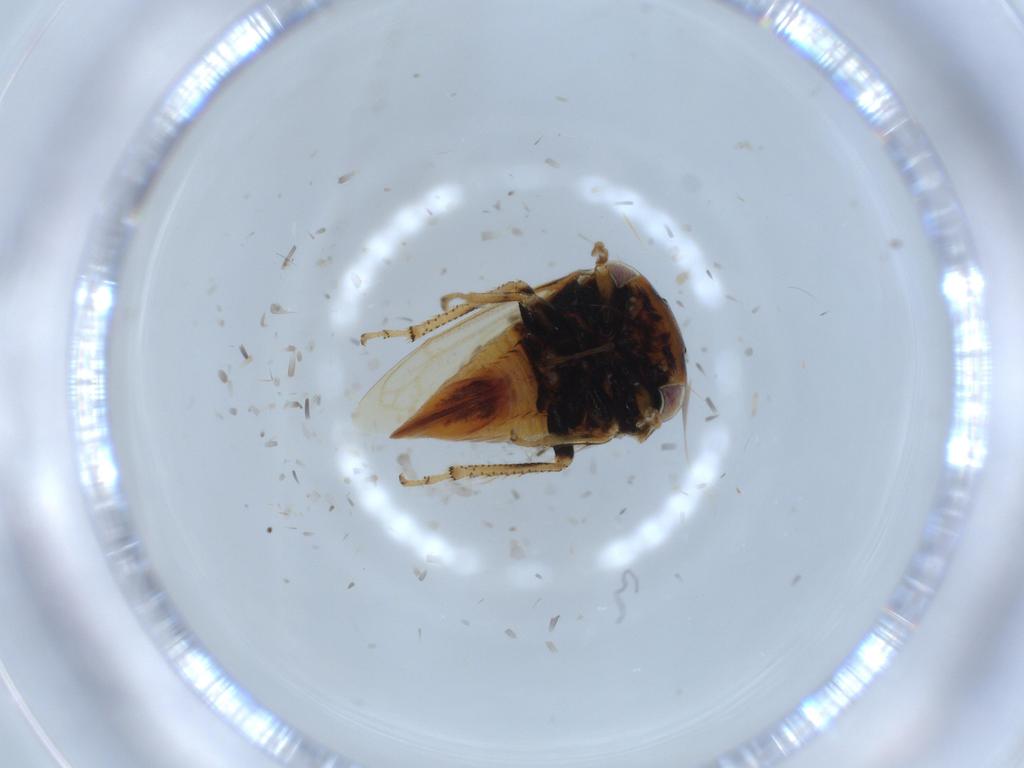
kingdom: Animalia
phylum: Arthropoda
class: Insecta
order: Hemiptera
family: Membracidae
